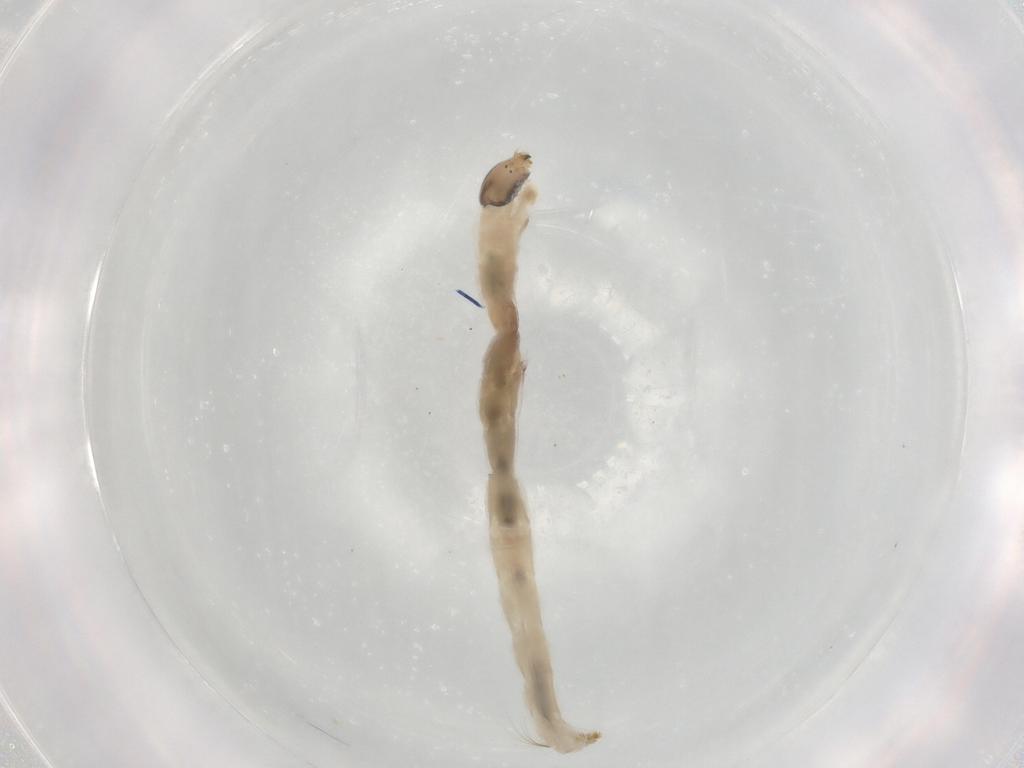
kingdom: Animalia
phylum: Arthropoda
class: Insecta
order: Diptera
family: Chironomidae
